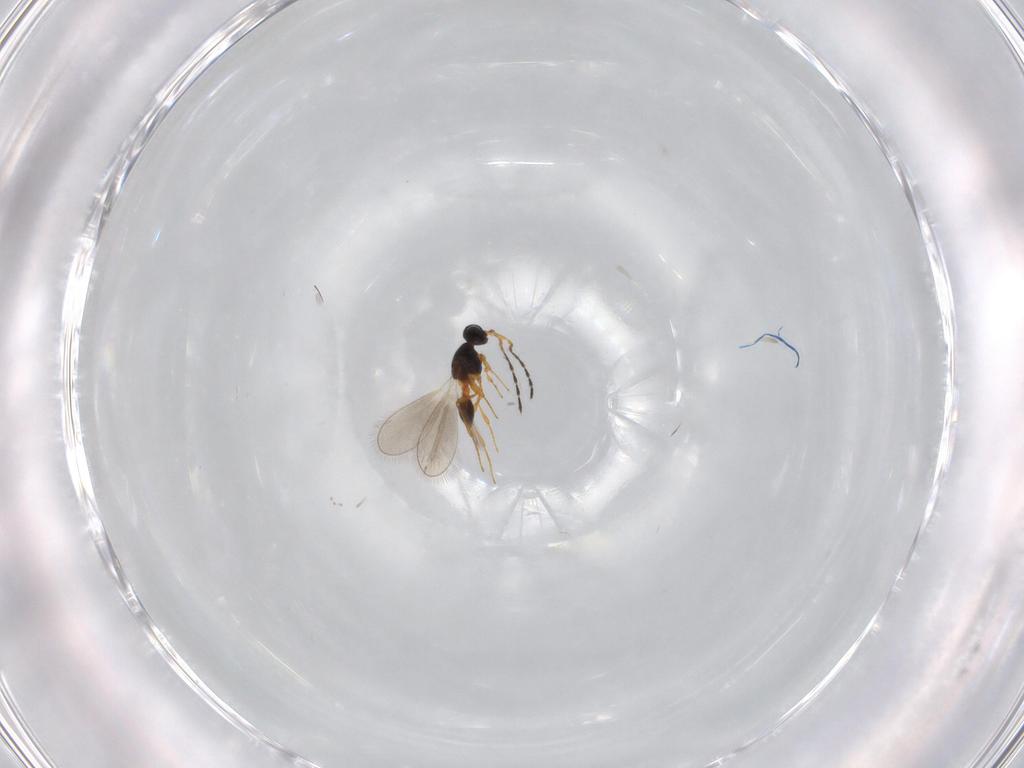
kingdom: Animalia
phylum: Arthropoda
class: Insecta
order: Hymenoptera
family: Platygastridae
